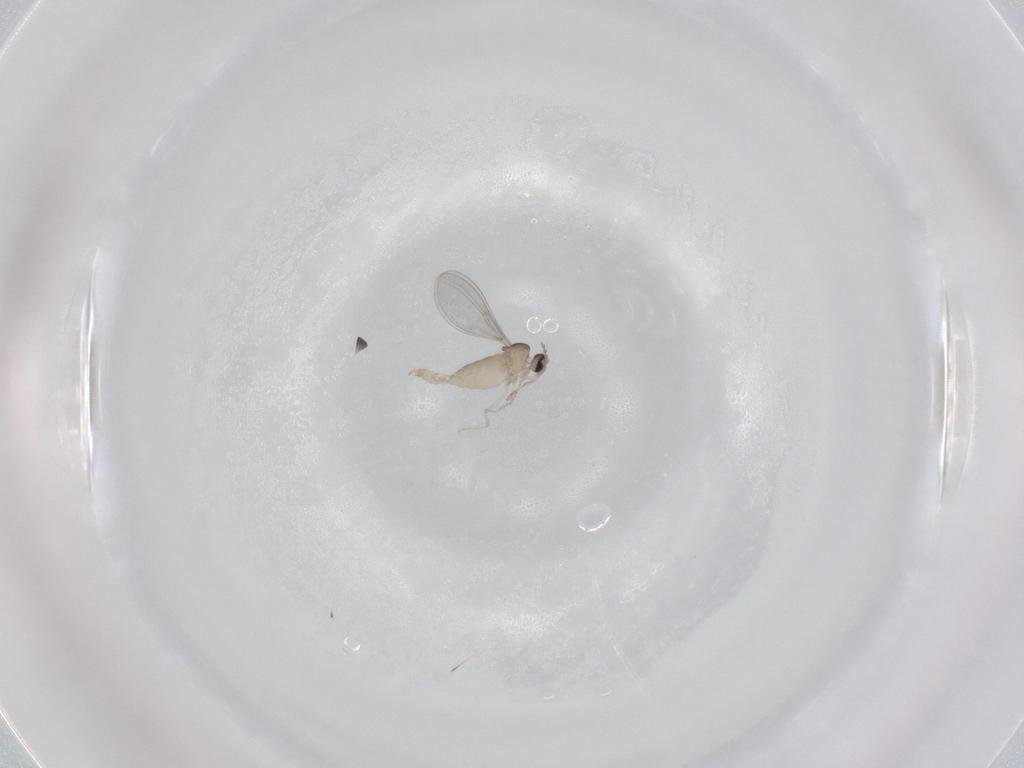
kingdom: Animalia
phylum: Arthropoda
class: Insecta
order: Diptera
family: Cecidomyiidae
